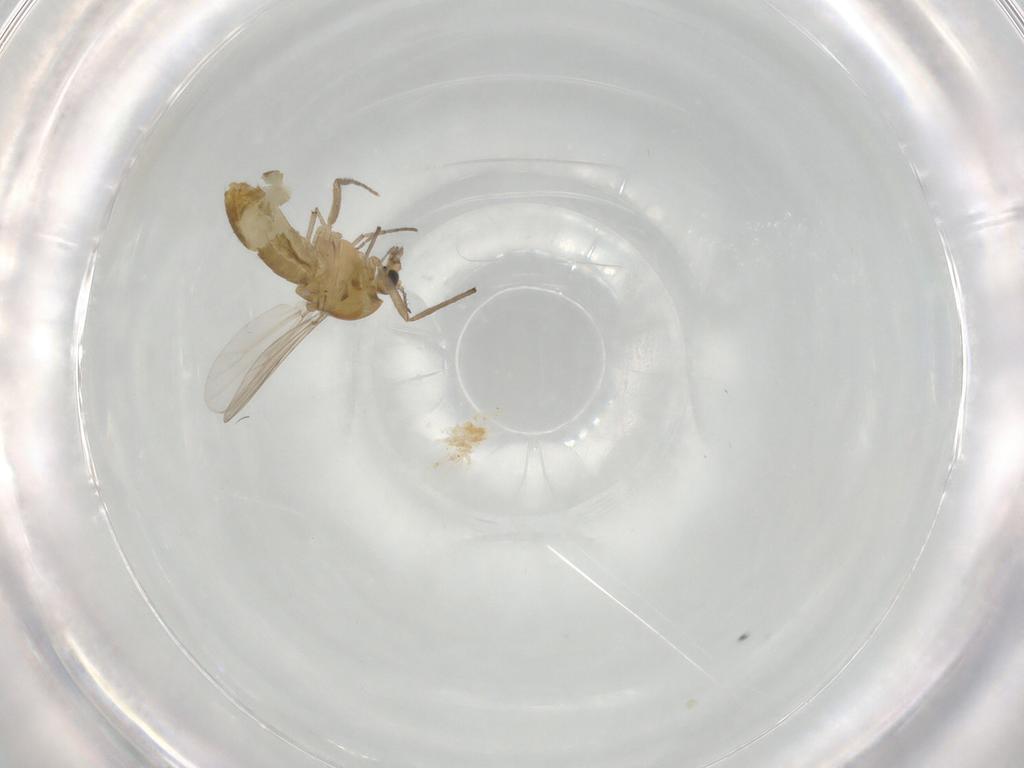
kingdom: Animalia
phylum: Arthropoda
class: Insecta
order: Diptera
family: Chironomidae
